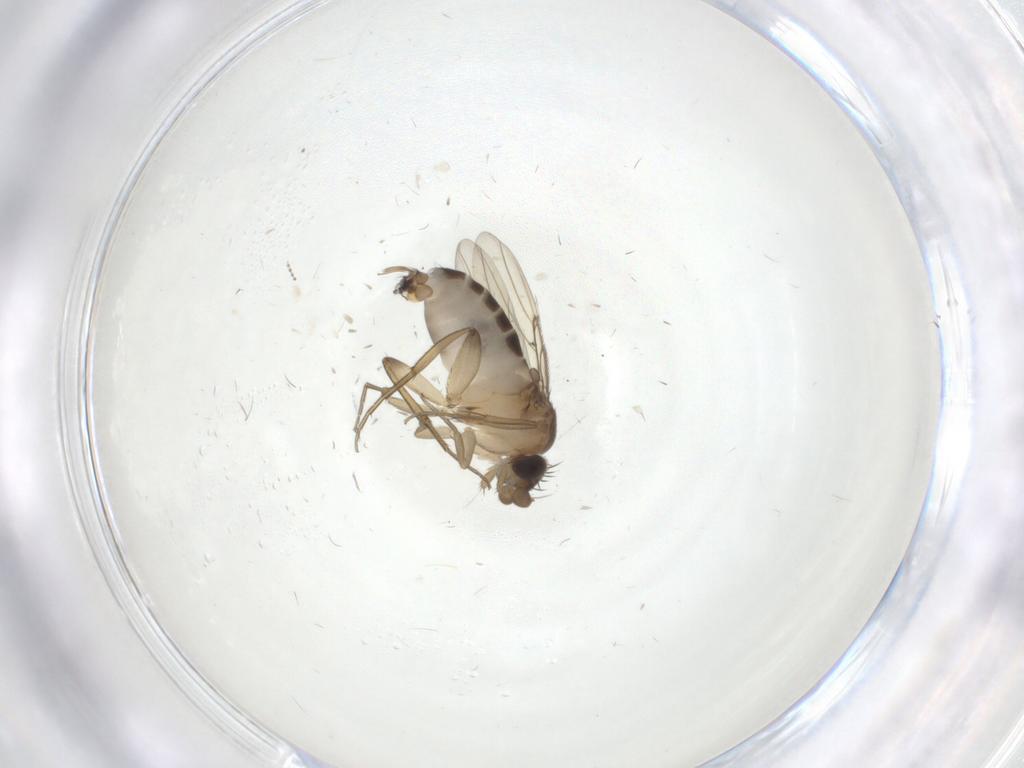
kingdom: Animalia
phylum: Arthropoda
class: Insecta
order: Diptera
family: Phoridae
